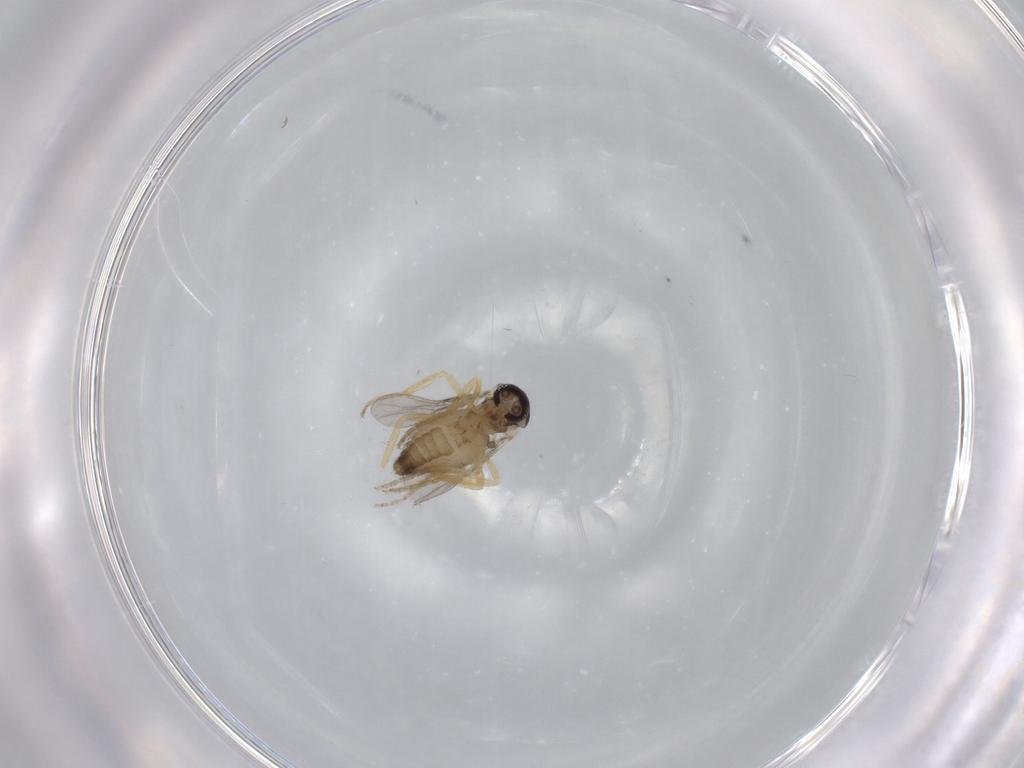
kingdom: Animalia
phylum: Arthropoda
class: Insecta
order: Diptera
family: Ceratopogonidae
